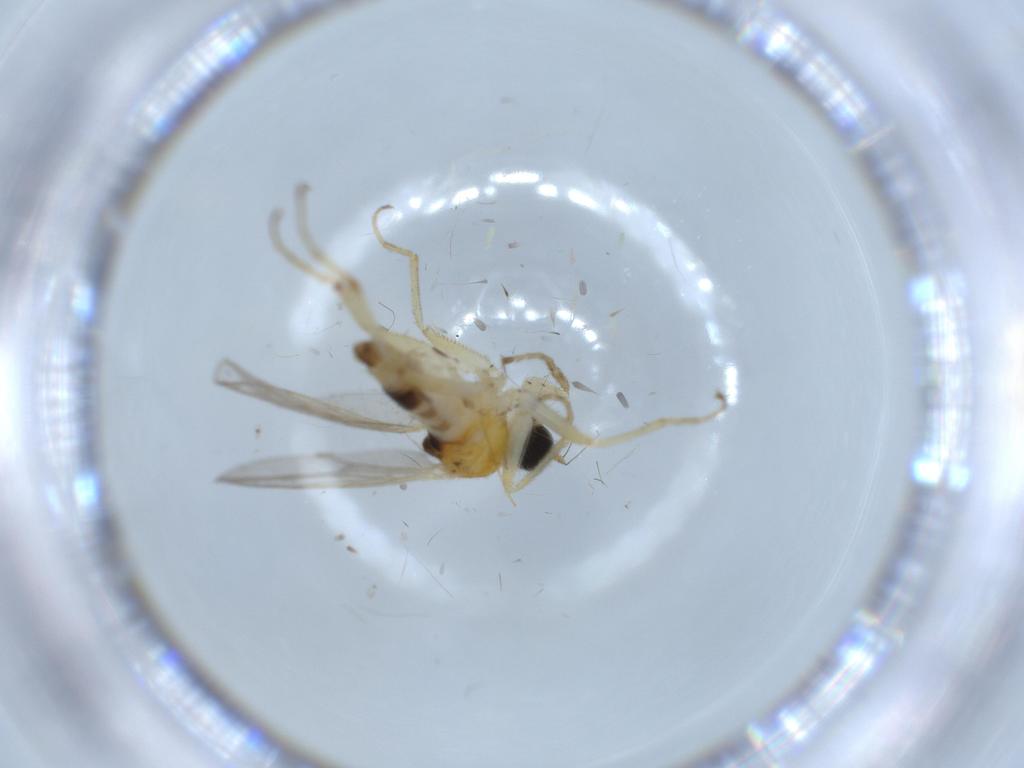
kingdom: Animalia
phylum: Arthropoda
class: Insecta
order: Diptera
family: Hybotidae
